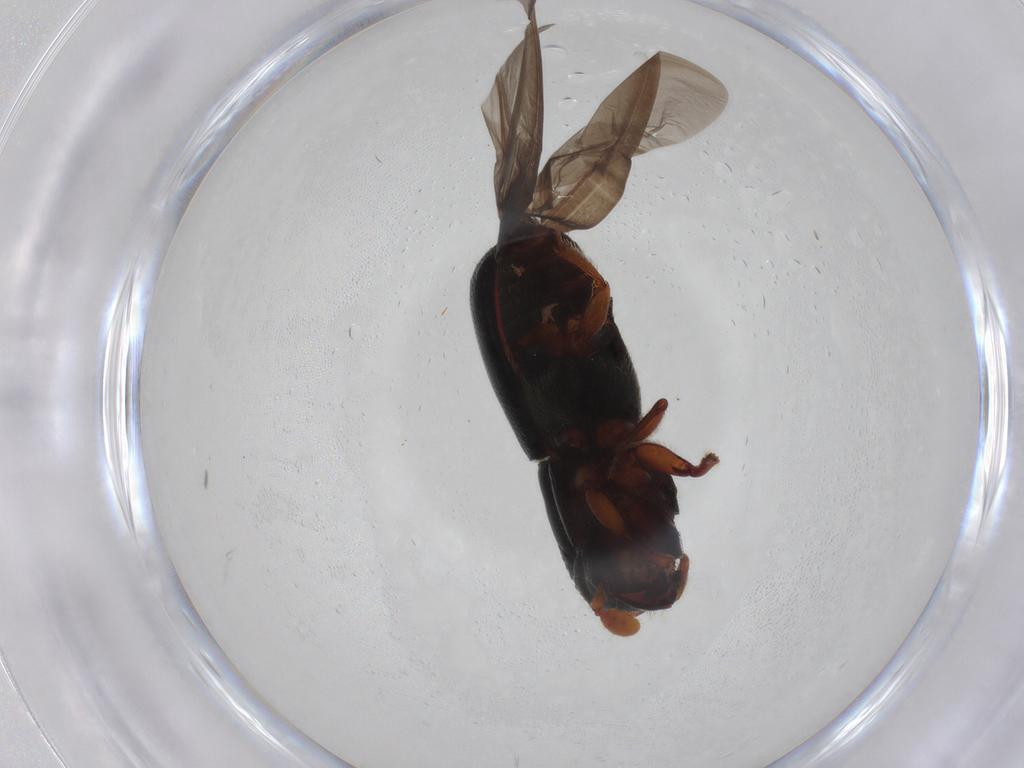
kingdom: Animalia
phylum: Arthropoda
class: Insecta
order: Coleoptera
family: Curculionidae
